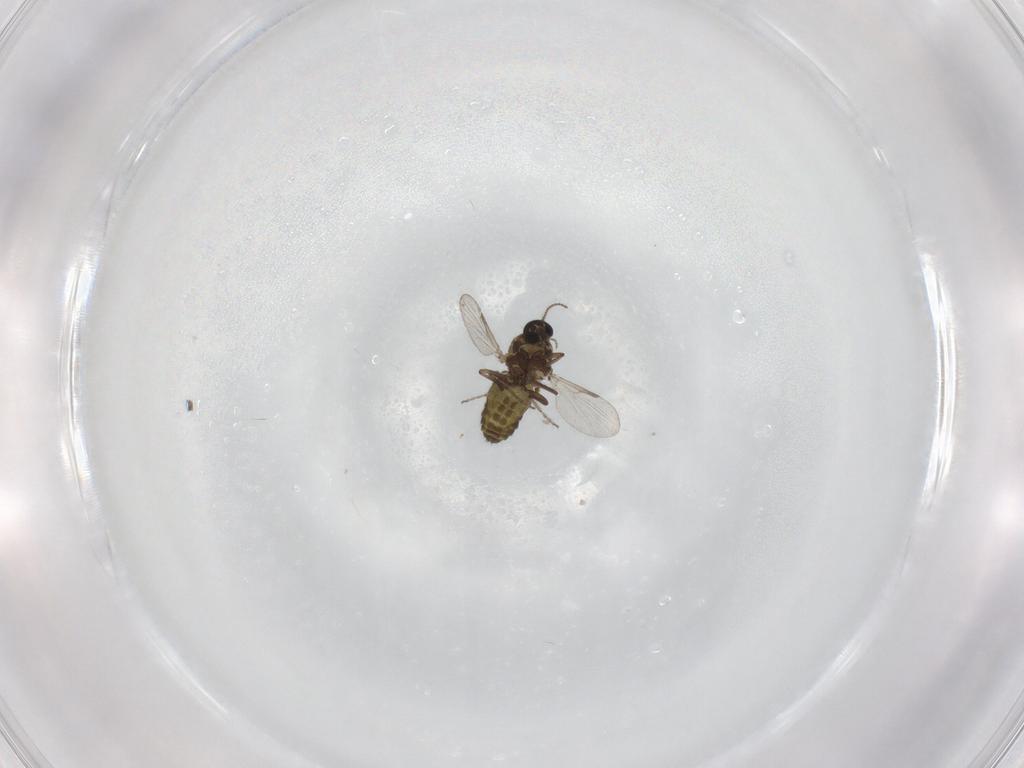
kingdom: Animalia
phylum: Arthropoda
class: Insecta
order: Diptera
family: Ceratopogonidae
